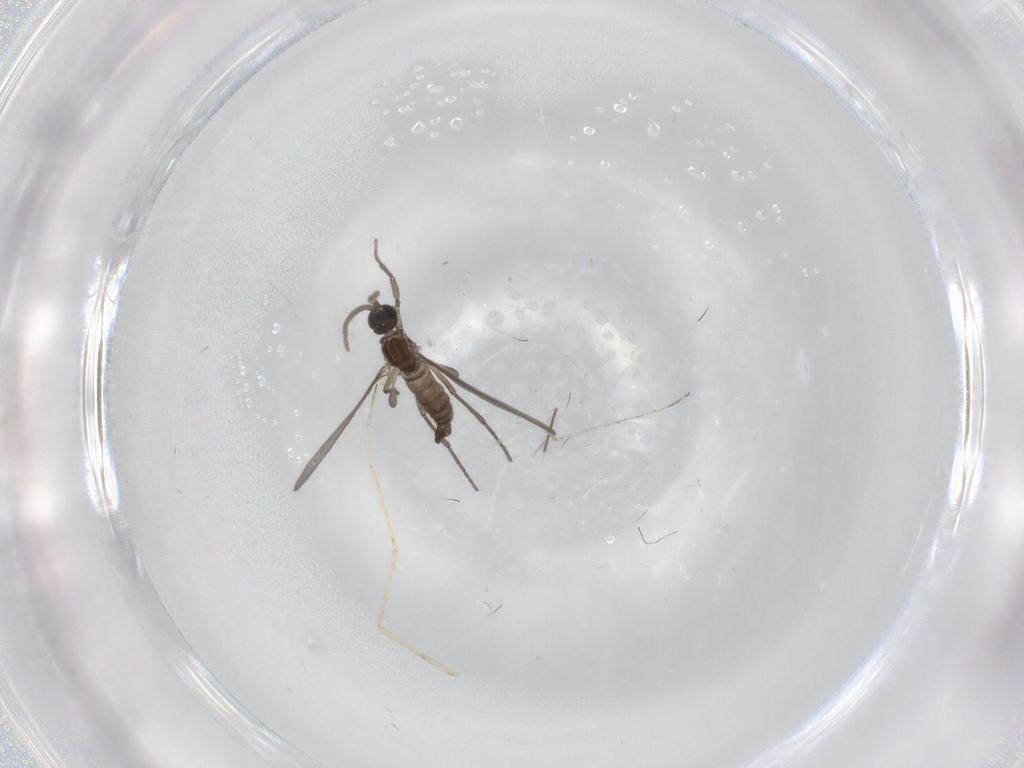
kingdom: Animalia
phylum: Arthropoda
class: Insecta
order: Diptera
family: Sciaridae
